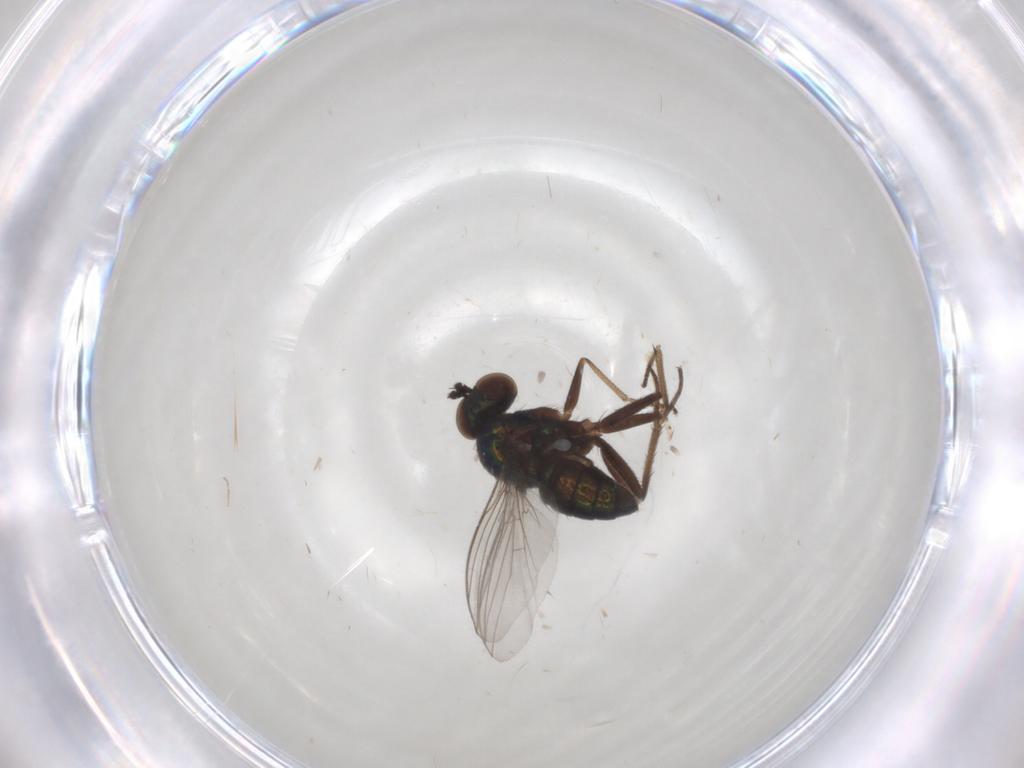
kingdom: Animalia
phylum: Arthropoda
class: Insecta
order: Diptera
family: Chaoboridae
